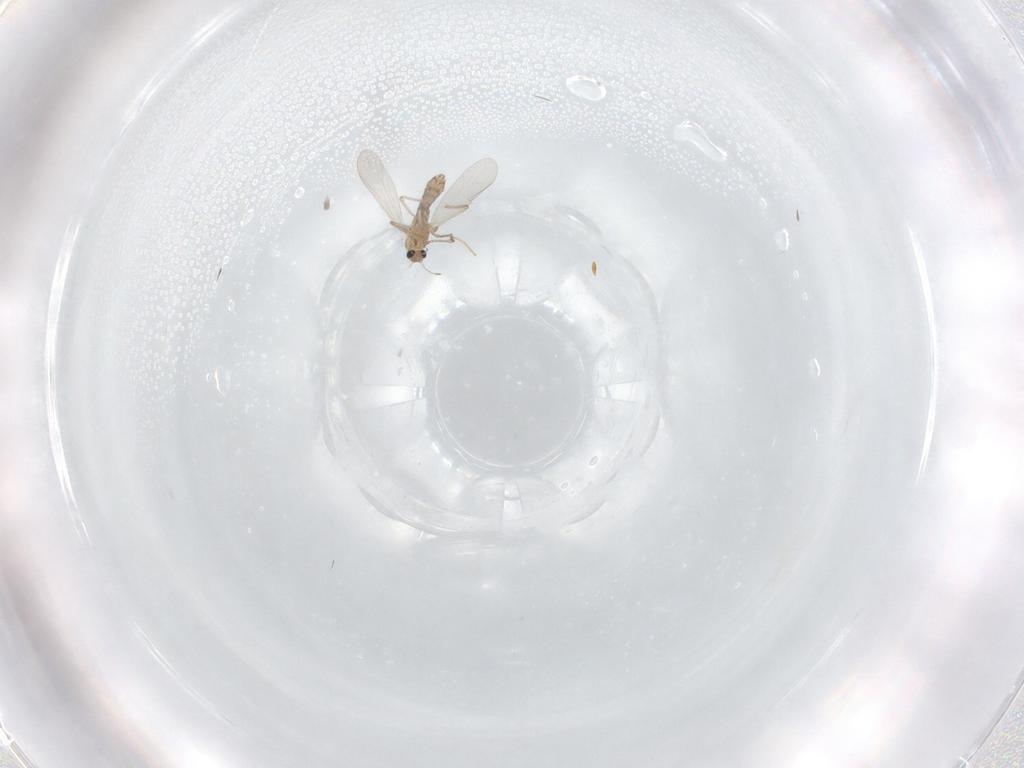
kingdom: Animalia
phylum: Arthropoda
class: Insecta
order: Diptera
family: Chironomidae
